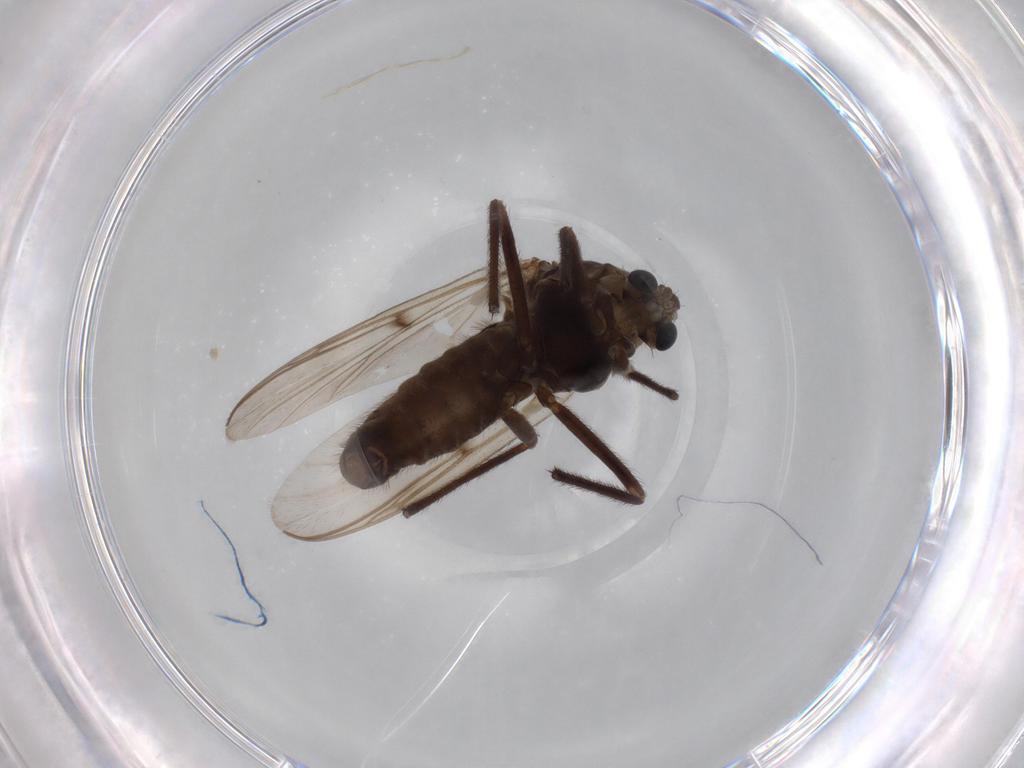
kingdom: Animalia
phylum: Arthropoda
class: Insecta
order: Diptera
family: Chironomidae
